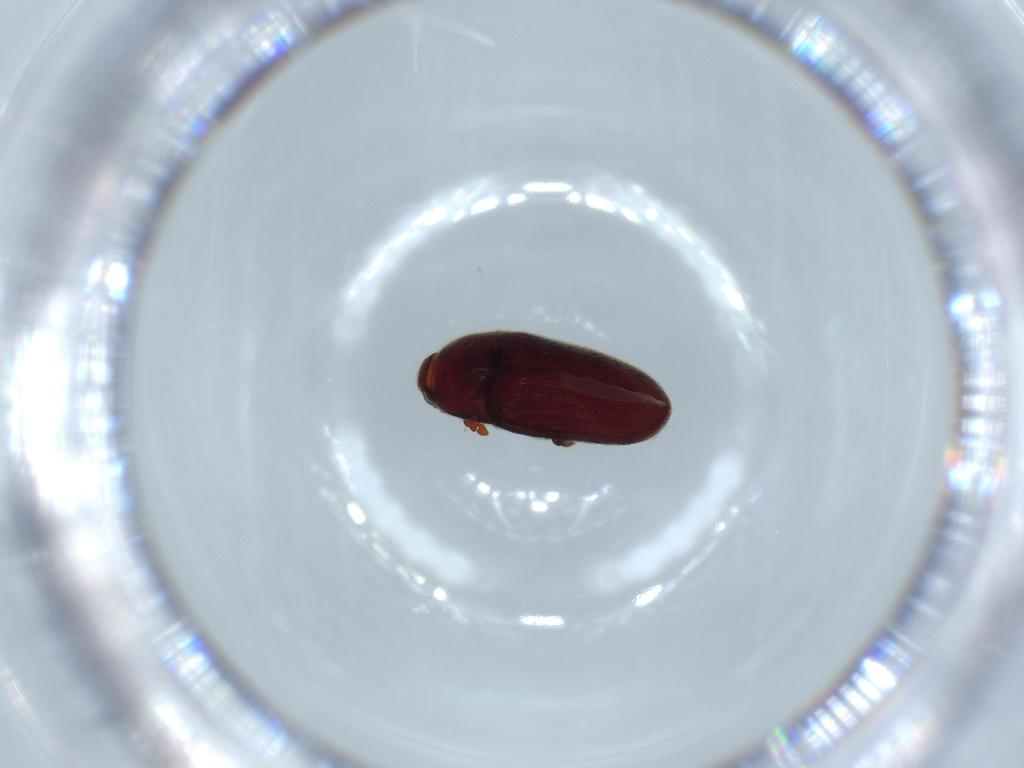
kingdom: Animalia
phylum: Arthropoda
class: Insecta
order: Coleoptera
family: Throscidae
